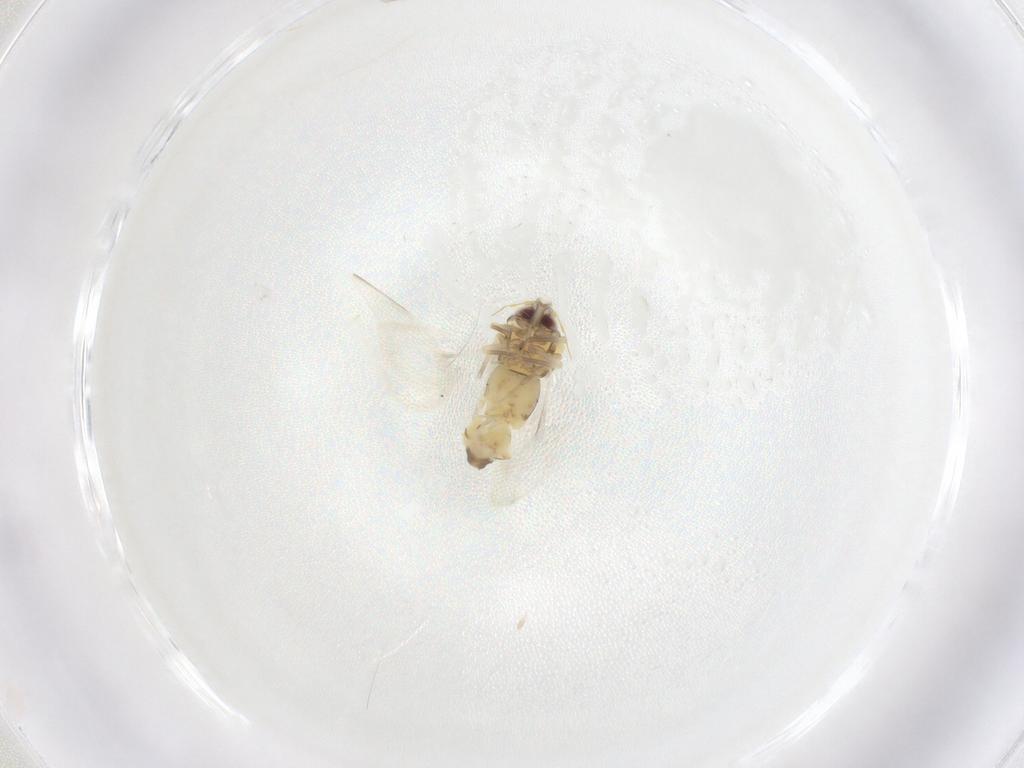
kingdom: Animalia
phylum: Arthropoda
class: Insecta
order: Hemiptera
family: Aleyrodidae
